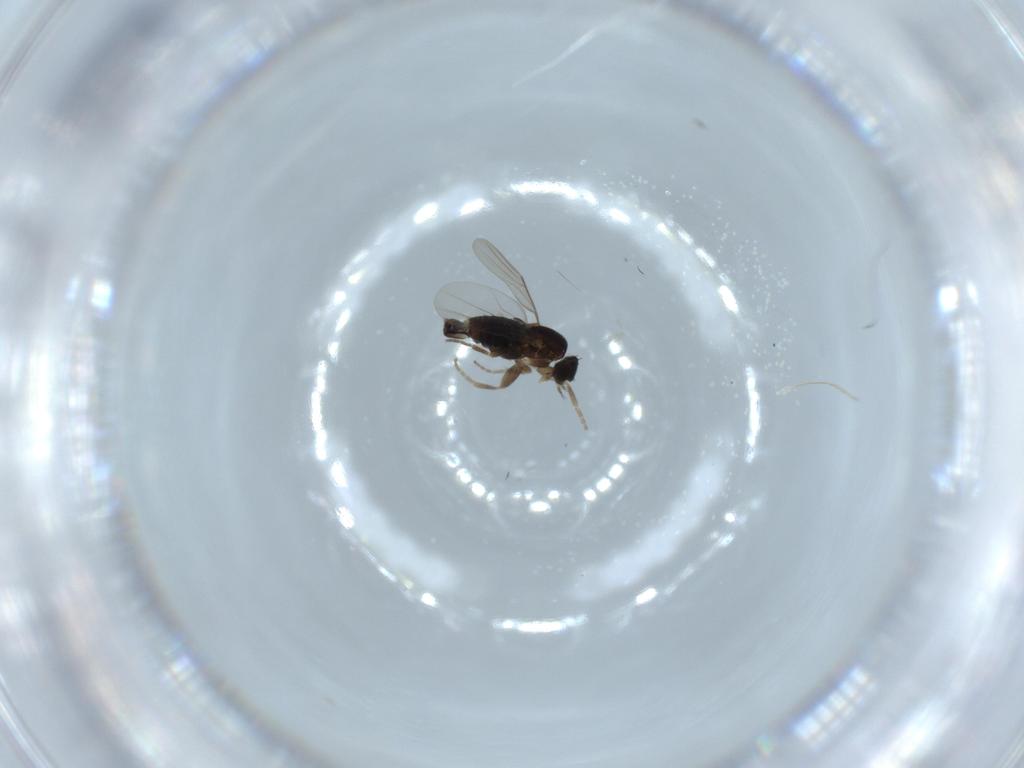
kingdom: Animalia
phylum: Arthropoda
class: Insecta
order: Diptera
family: Phoridae
